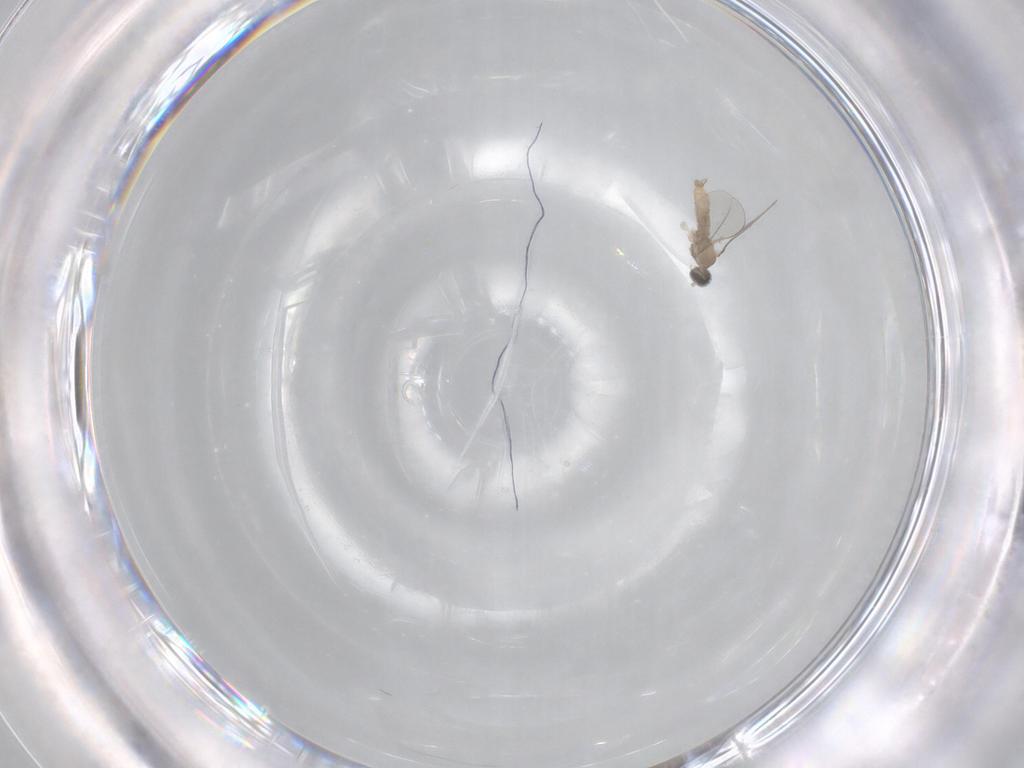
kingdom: Animalia
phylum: Arthropoda
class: Insecta
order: Diptera
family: Cecidomyiidae
